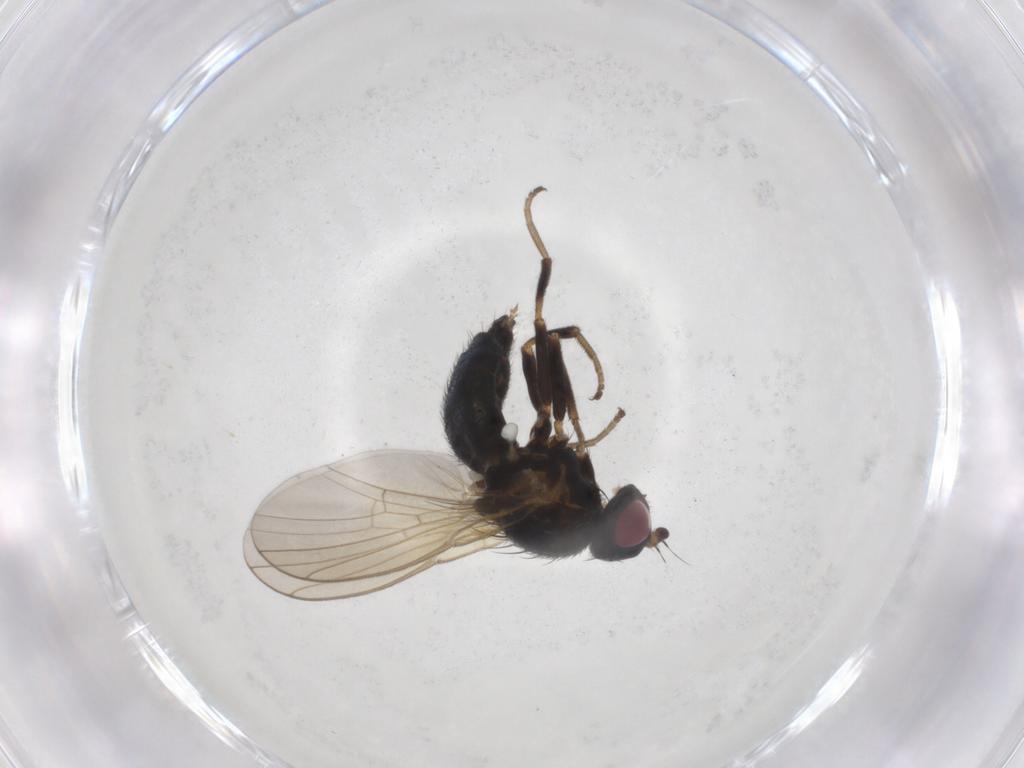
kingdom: Animalia
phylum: Arthropoda
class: Insecta
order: Diptera
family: Agromyzidae
